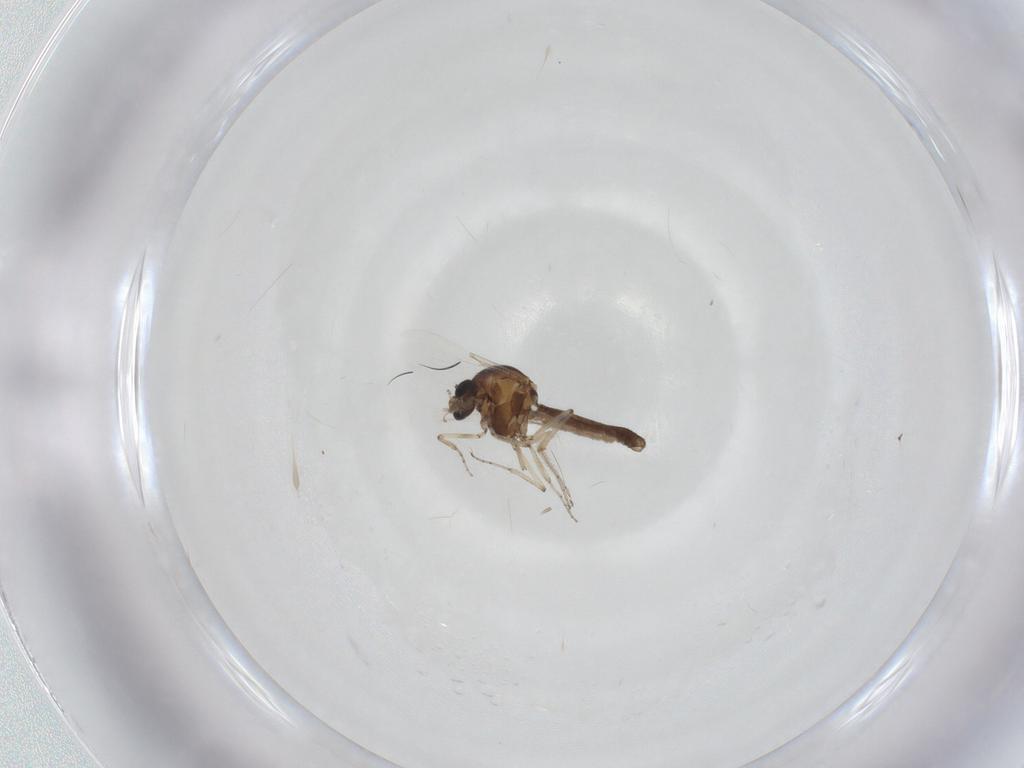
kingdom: Animalia
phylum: Arthropoda
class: Insecta
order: Diptera
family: Ceratopogonidae
